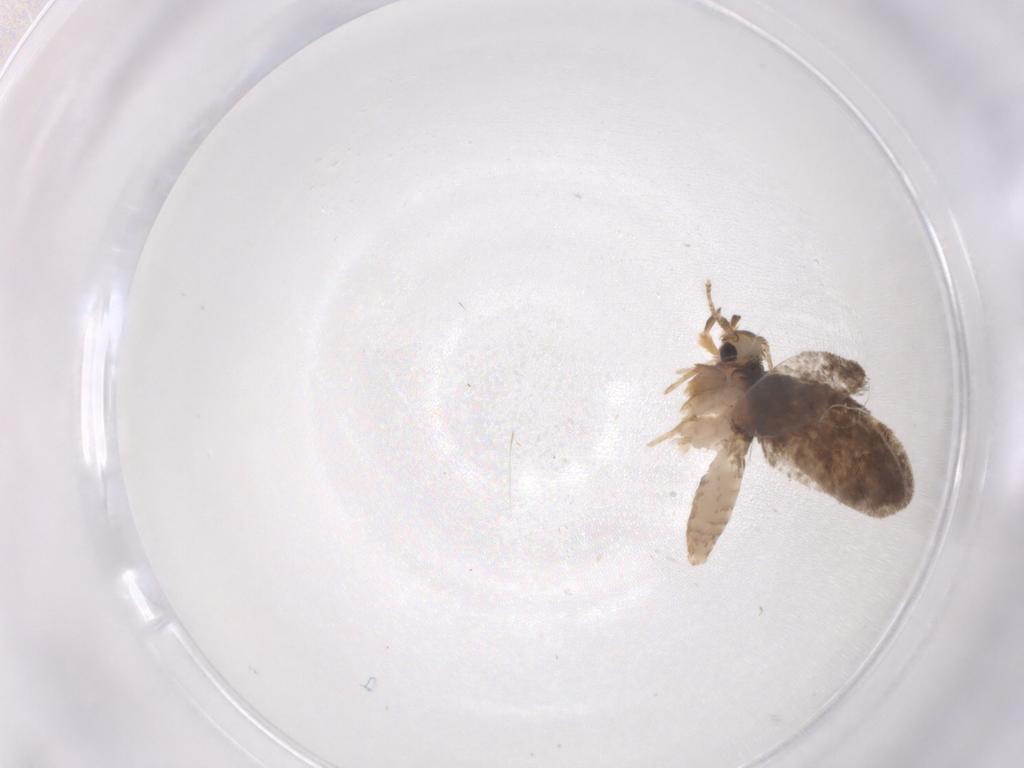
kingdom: Animalia
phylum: Arthropoda
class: Insecta
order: Lepidoptera
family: Psychidae
